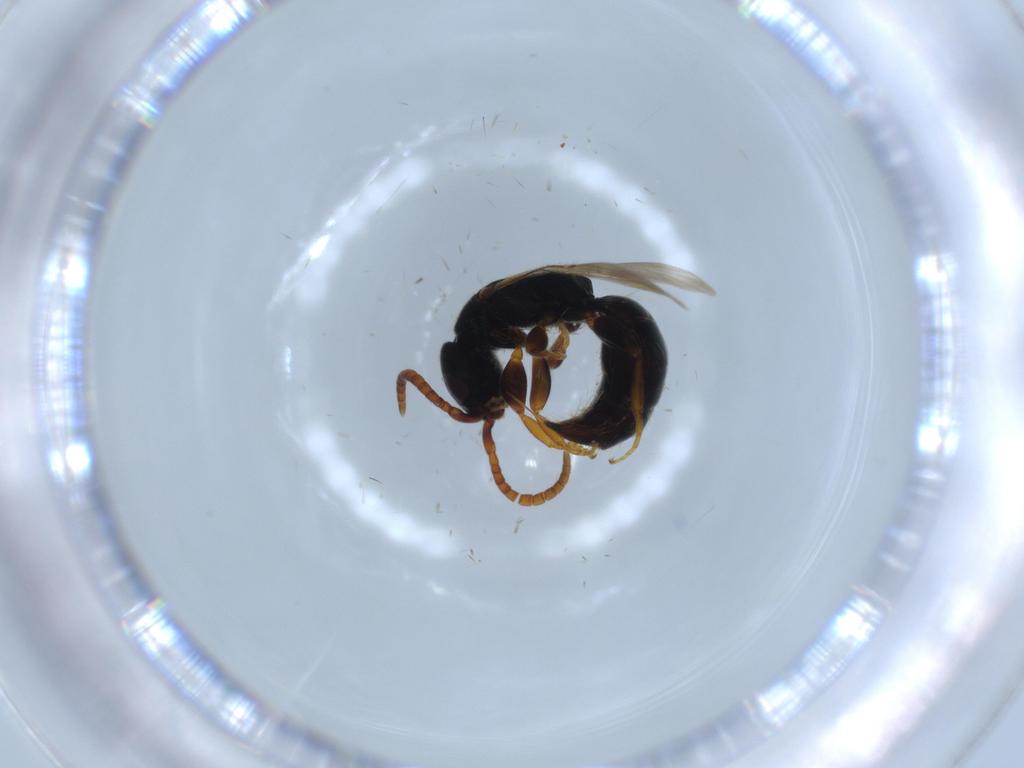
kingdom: Animalia
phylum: Arthropoda
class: Insecta
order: Hymenoptera
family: Bethylidae
